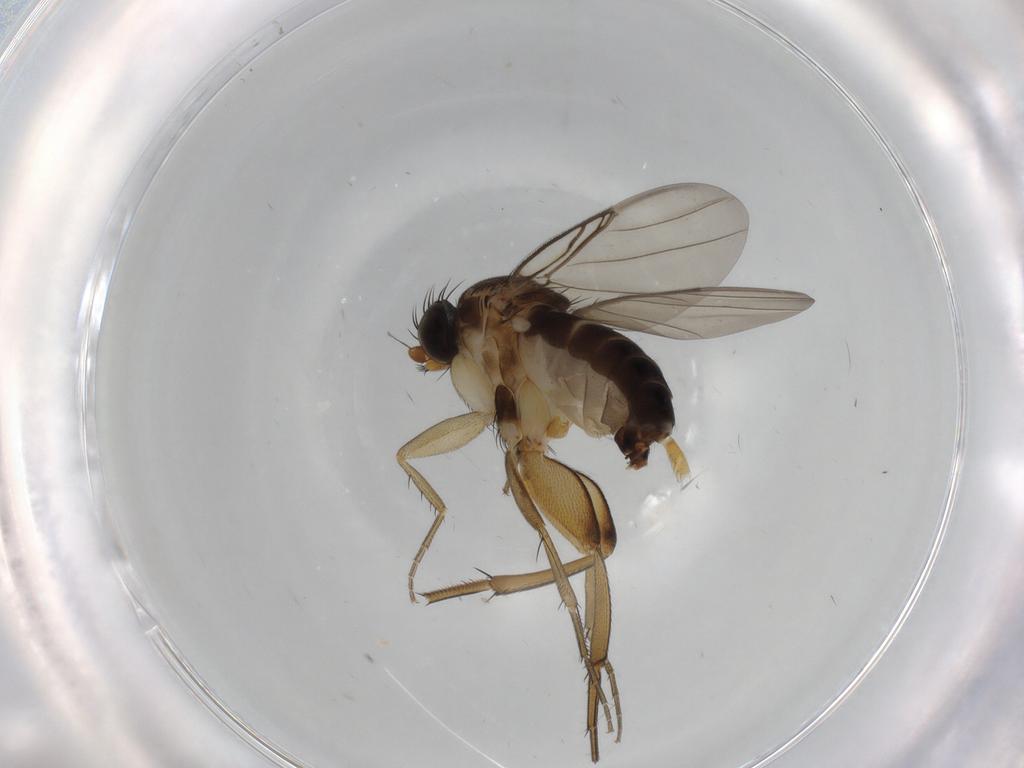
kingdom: Animalia
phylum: Arthropoda
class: Insecta
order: Diptera
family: Phoridae
